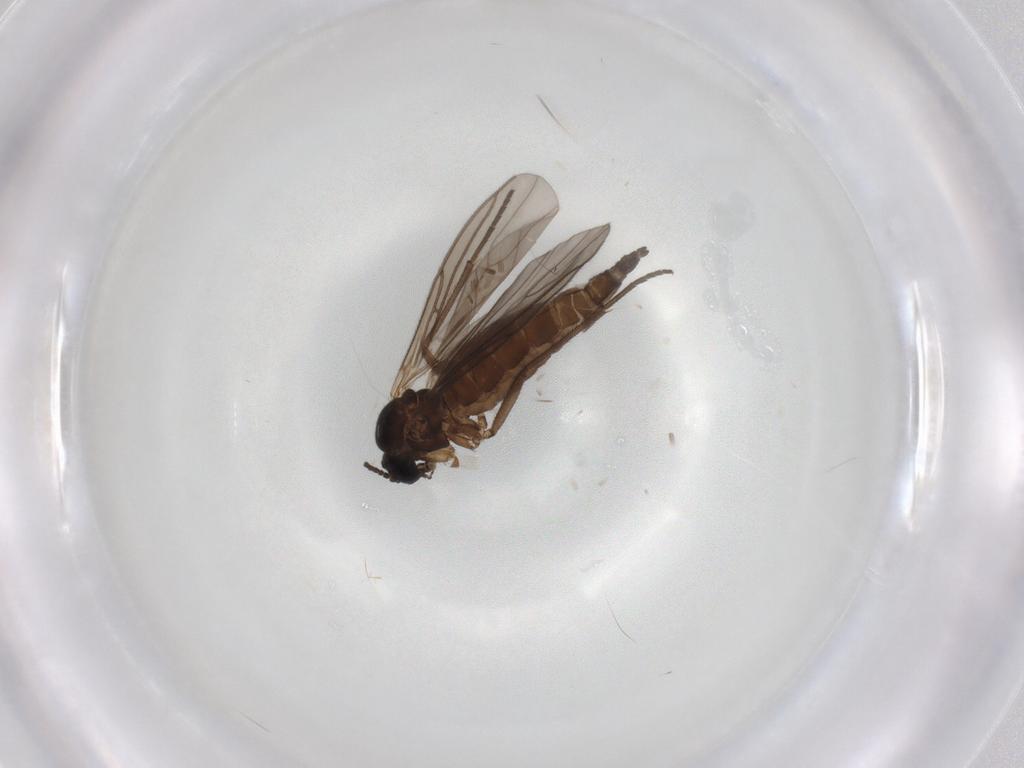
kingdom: Animalia
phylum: Arthropoda
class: Insecta
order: Diptera
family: Sciaridae
